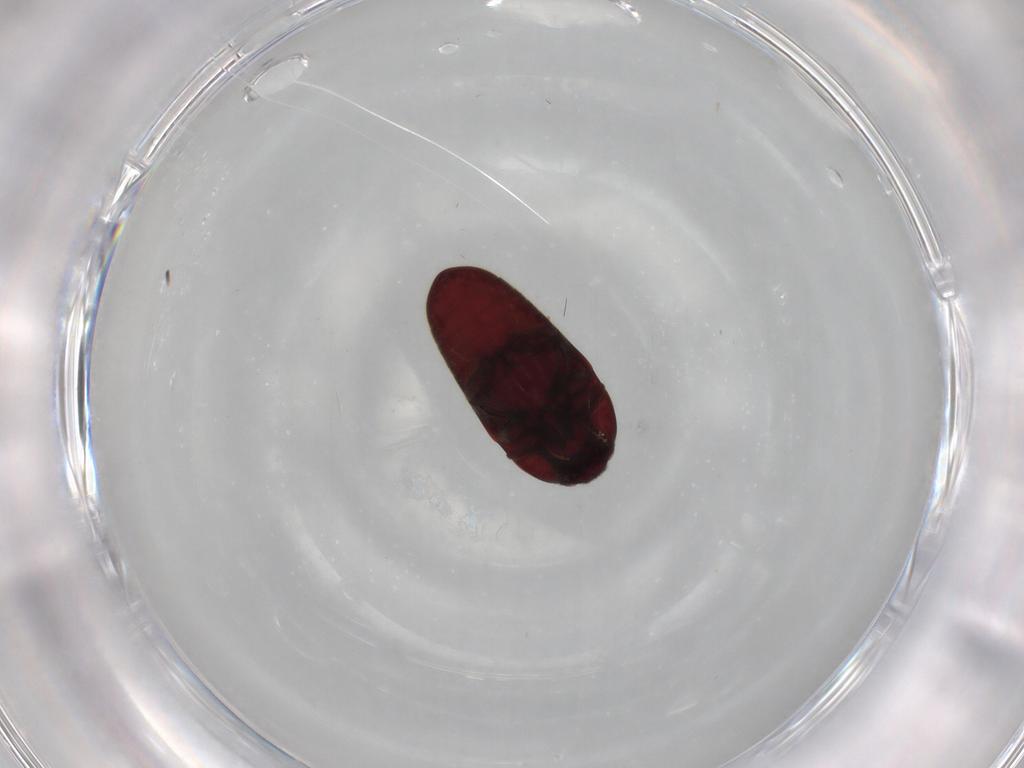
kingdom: Animalia
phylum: Arthropoda
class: Insecta
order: Coleoptera
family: Throscidae
